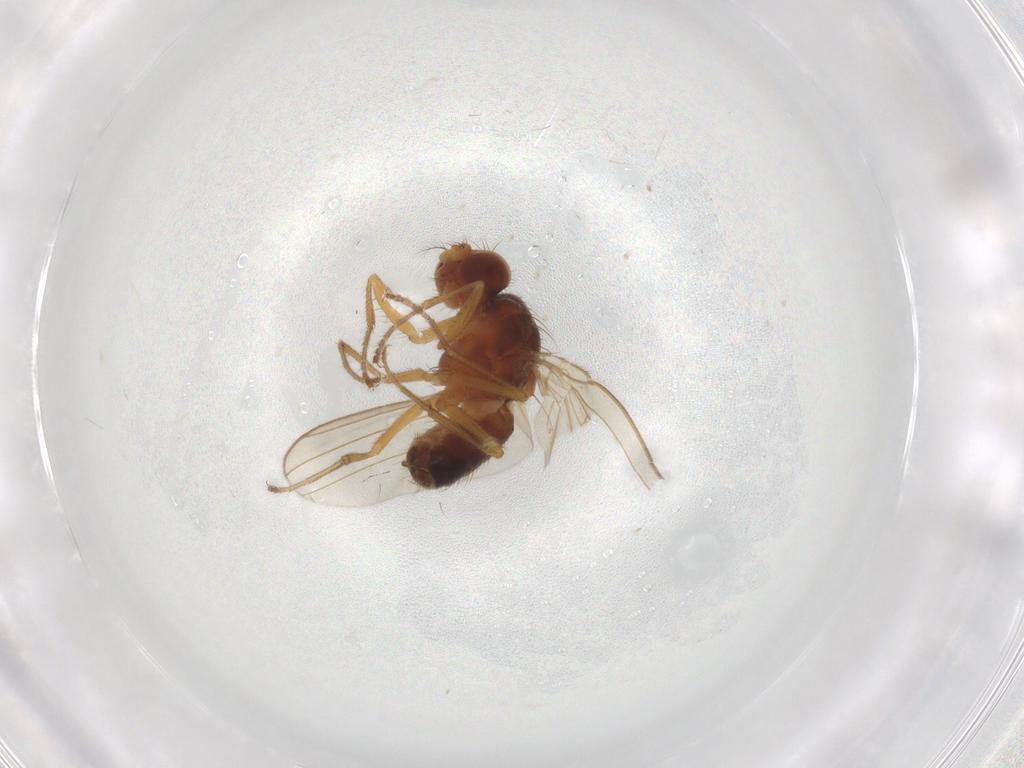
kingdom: Animalia
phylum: Arthropoda
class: Insecta
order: Diptera
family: Drosophilidae
